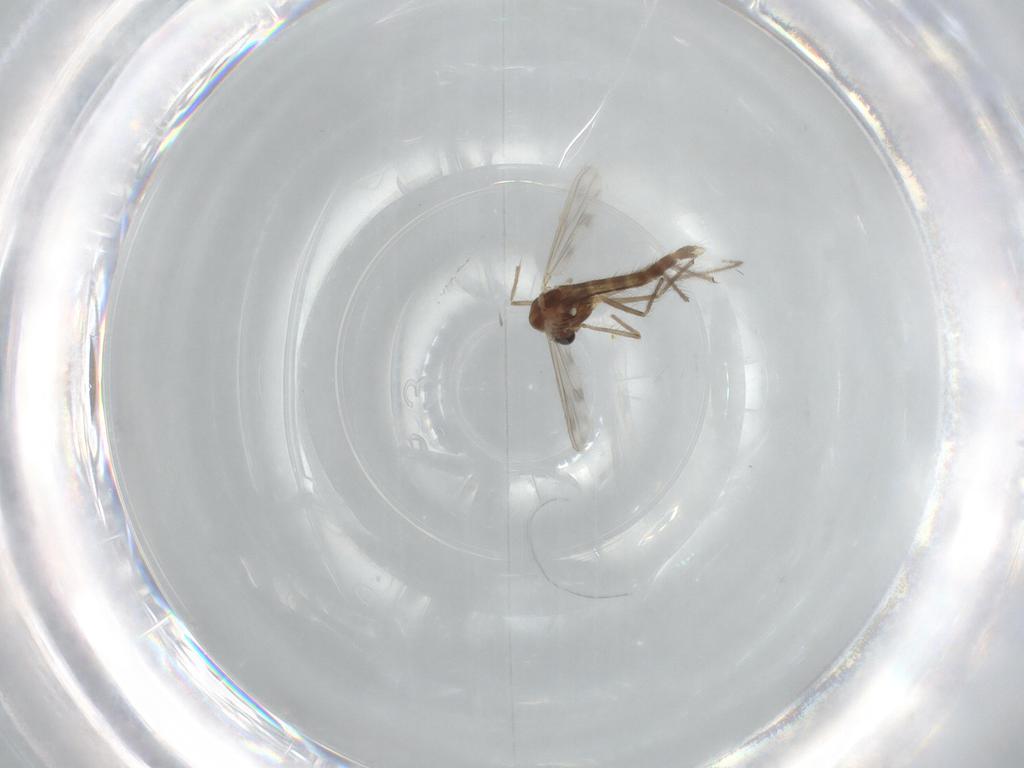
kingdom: Animalia
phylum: Arthropoda
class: Insecta
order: Diptera
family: Chironomidae
